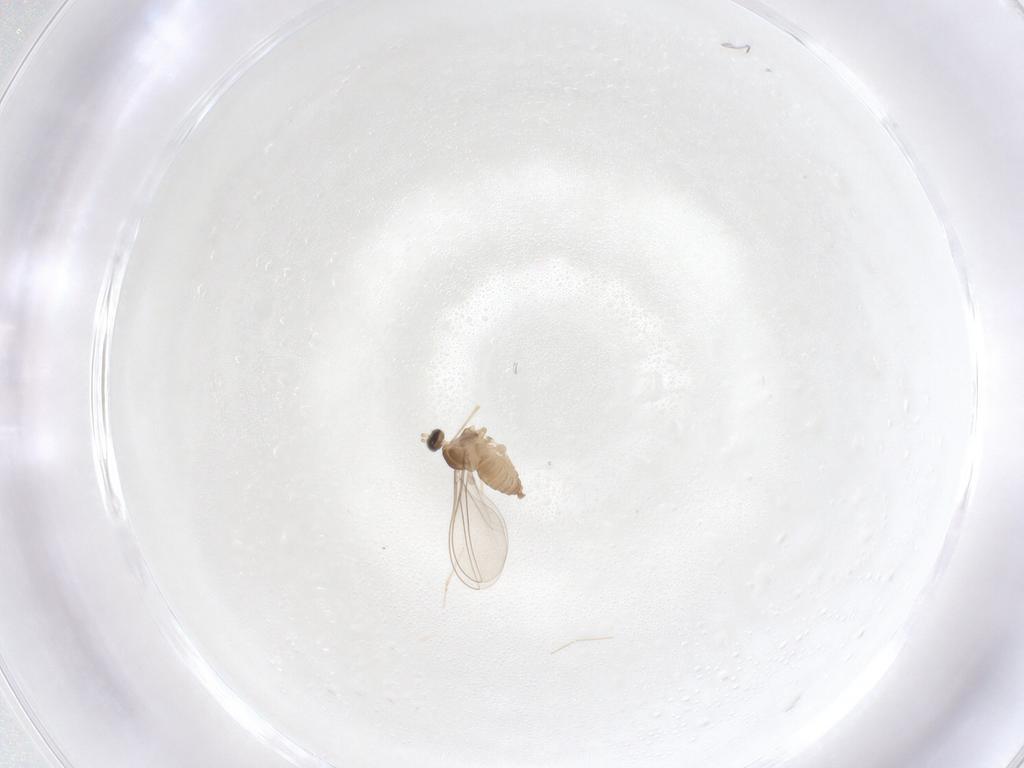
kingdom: Animalia
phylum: Arthropoda
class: Insecta
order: Diptera
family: Cecidomyiidae
